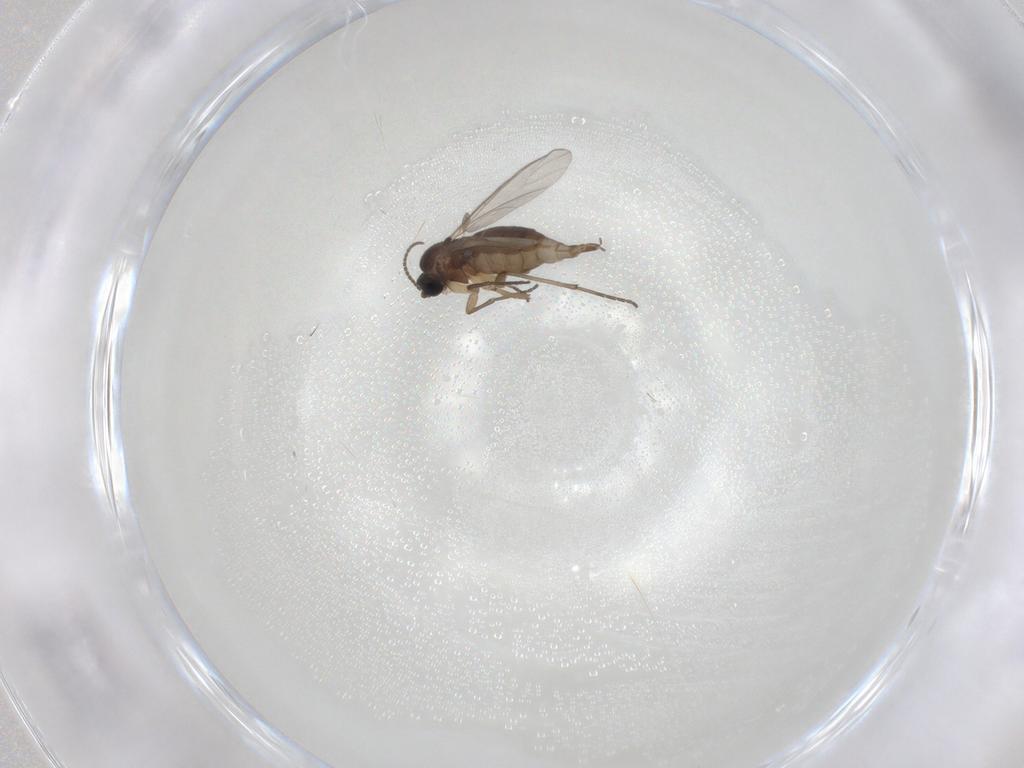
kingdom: Animalia
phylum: Arthropoda
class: Insecta
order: Diptera
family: Sciaridae
